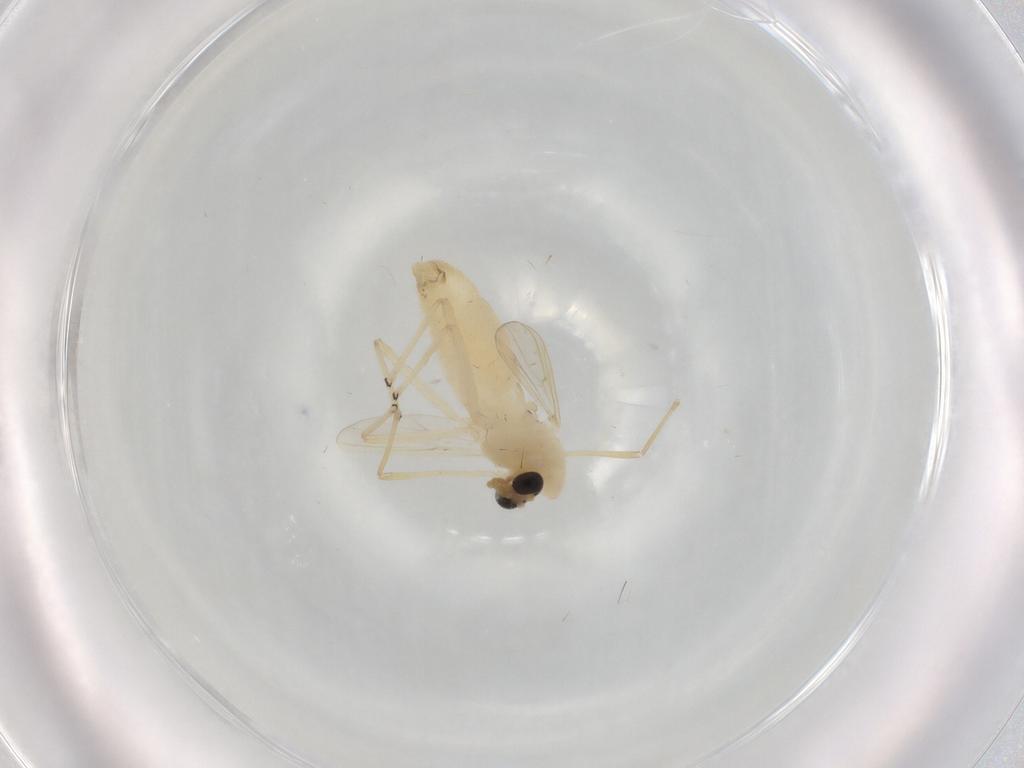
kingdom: Animalia
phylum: Arthropoda
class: Insecta
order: Diptera
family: Chironomidae
